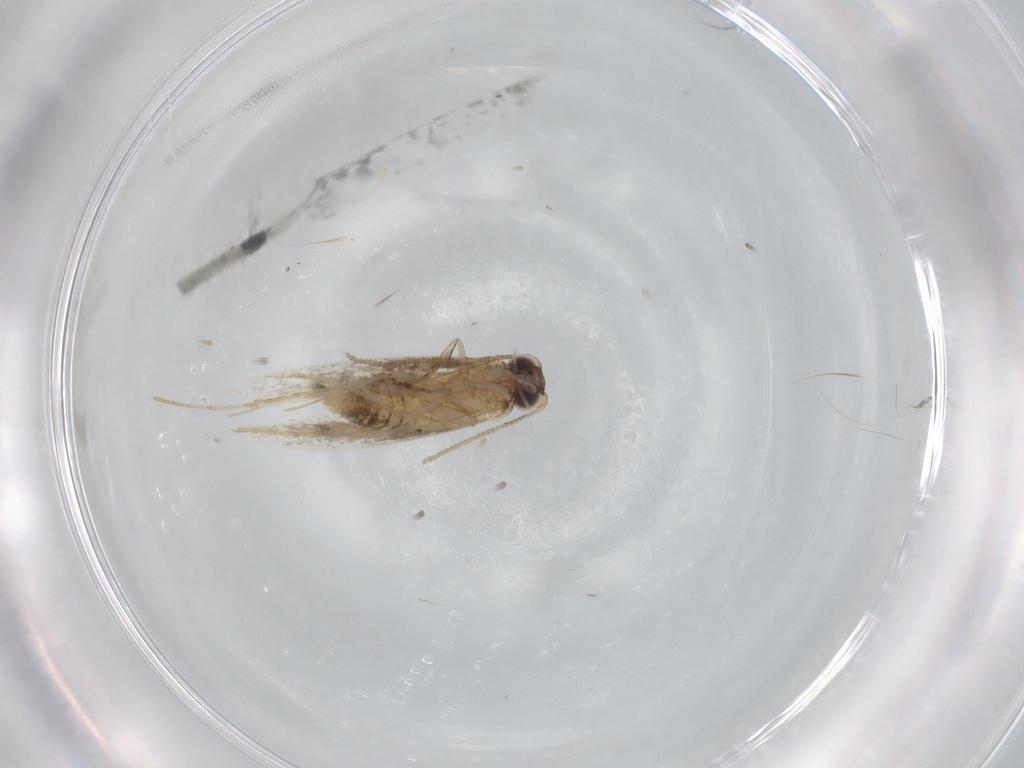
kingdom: Animalia
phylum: Arthropoda
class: Insecta
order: Lepidoptera
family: Tineidae
